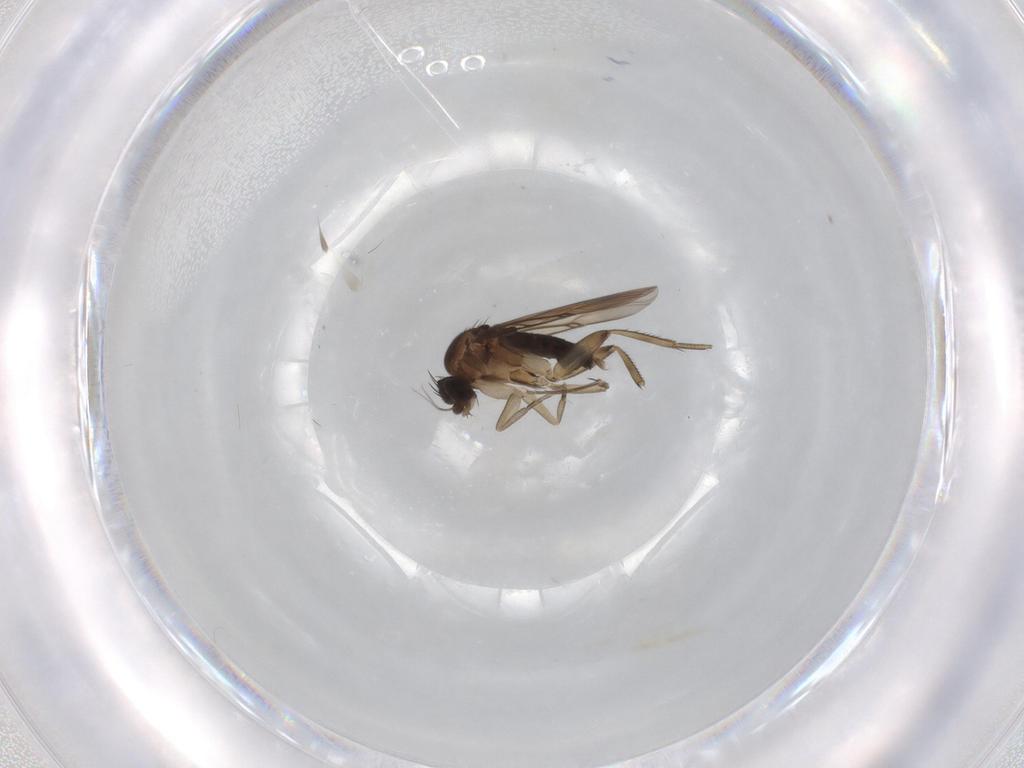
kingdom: Animalia
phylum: Arthropoda
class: Insecta
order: Diptera
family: Phoridae
